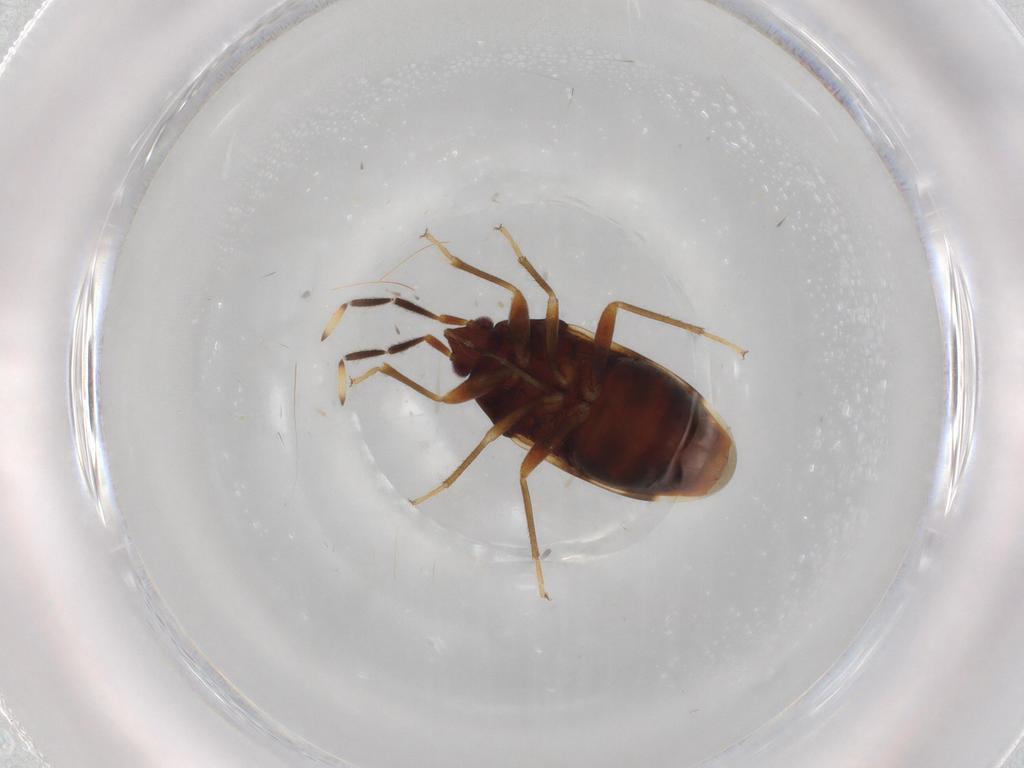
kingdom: Animalia
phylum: Arthropoda
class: Insecta
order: Hemiptera
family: Rhyparochromidae
